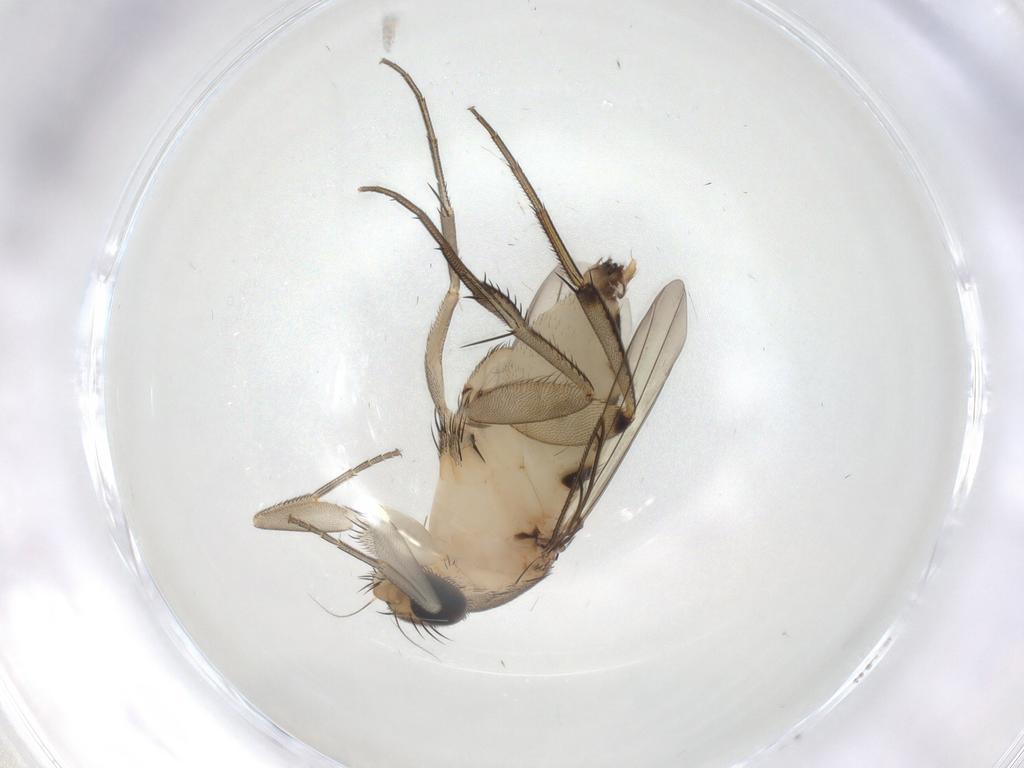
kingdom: Animalia
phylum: Arthropoda
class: Insecta
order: Diptera
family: Phoridae
